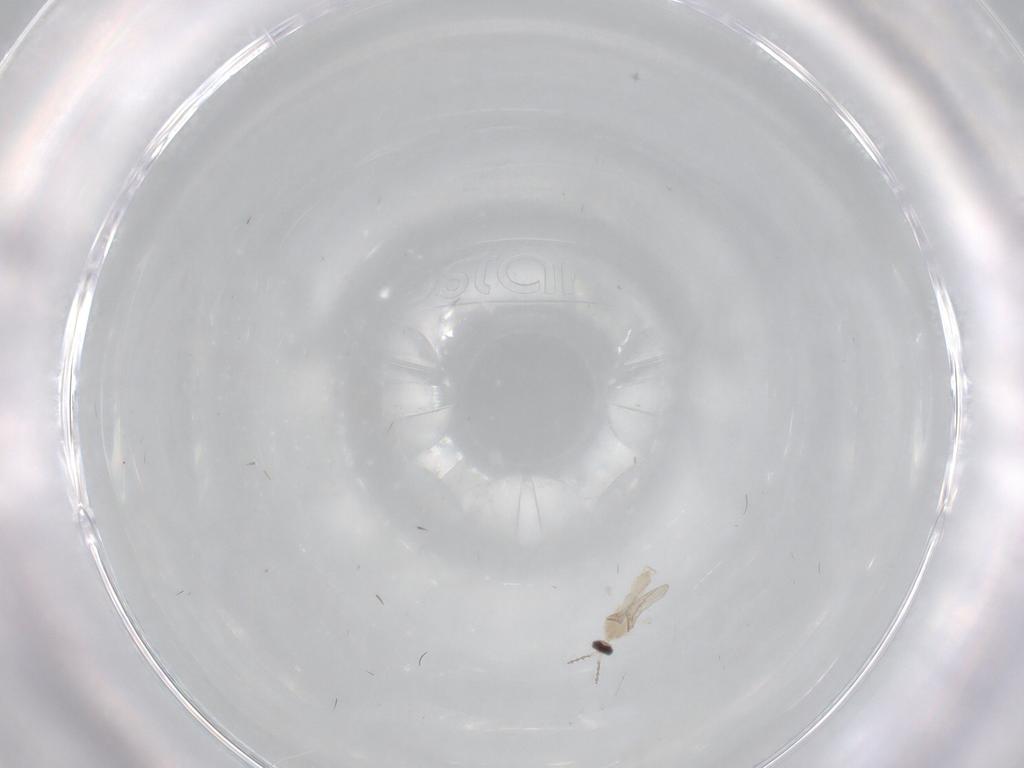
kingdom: Animalia
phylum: Arthropoda
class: Insecta
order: Diptera
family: Cecidomyiidae
